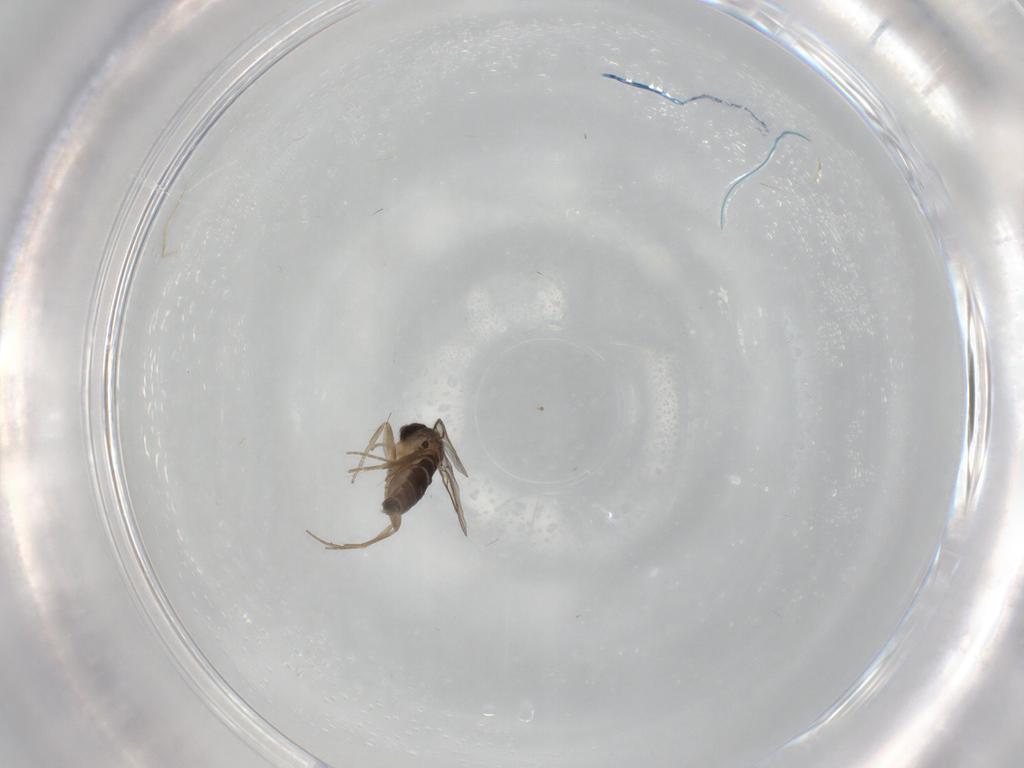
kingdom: Animalia
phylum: Arthropoda
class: Insecta
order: Diptera
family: Phoridae
